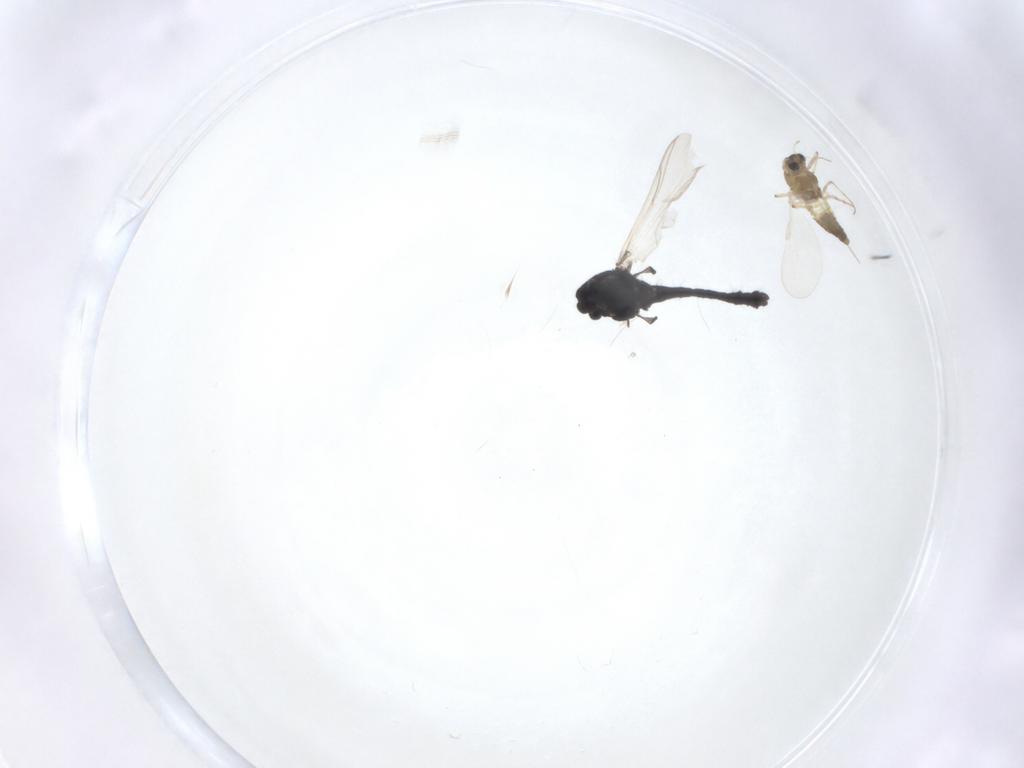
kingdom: Animalia
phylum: Arthropoda
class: Insecta
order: Diptera
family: Chironomidae
